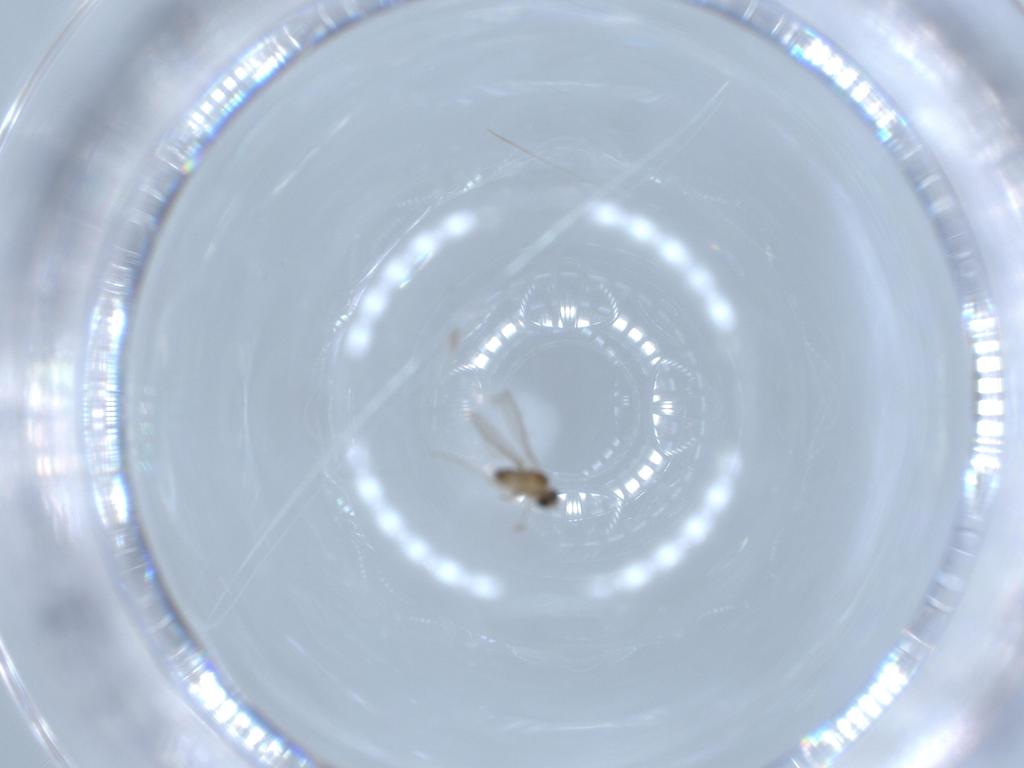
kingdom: Animalia
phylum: Arthropoda
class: Insecta
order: Diptera
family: Cecidomyiidae
